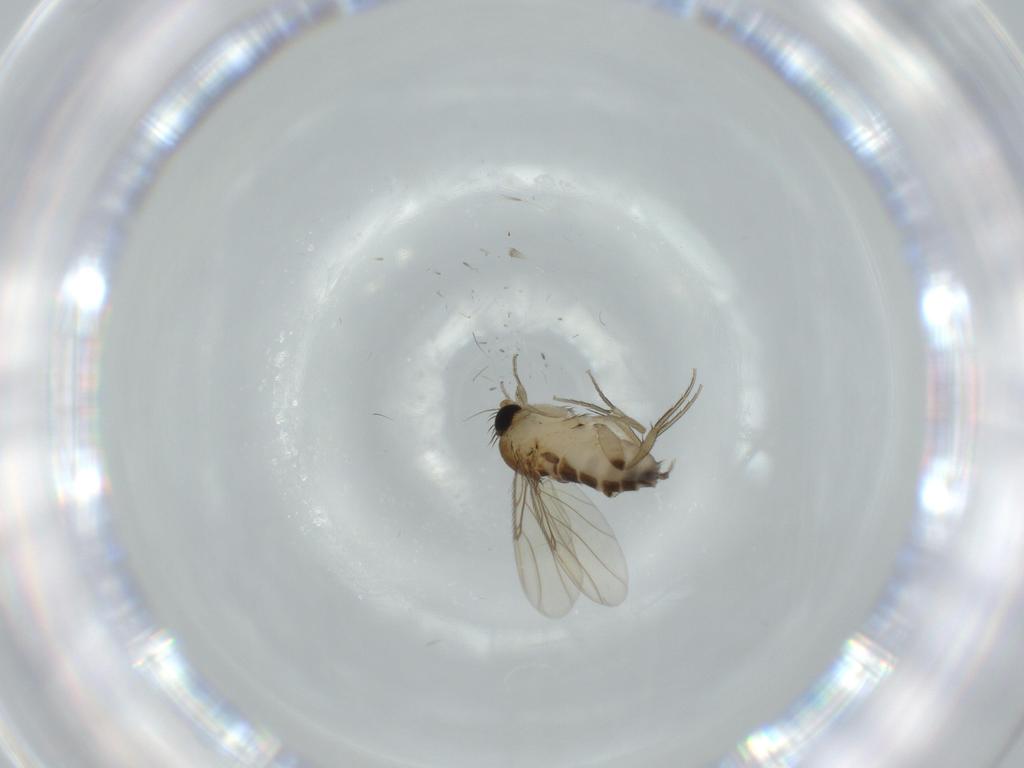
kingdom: Animalia
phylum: Arthropoda
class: Insecta
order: Diptera
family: Phoridae
